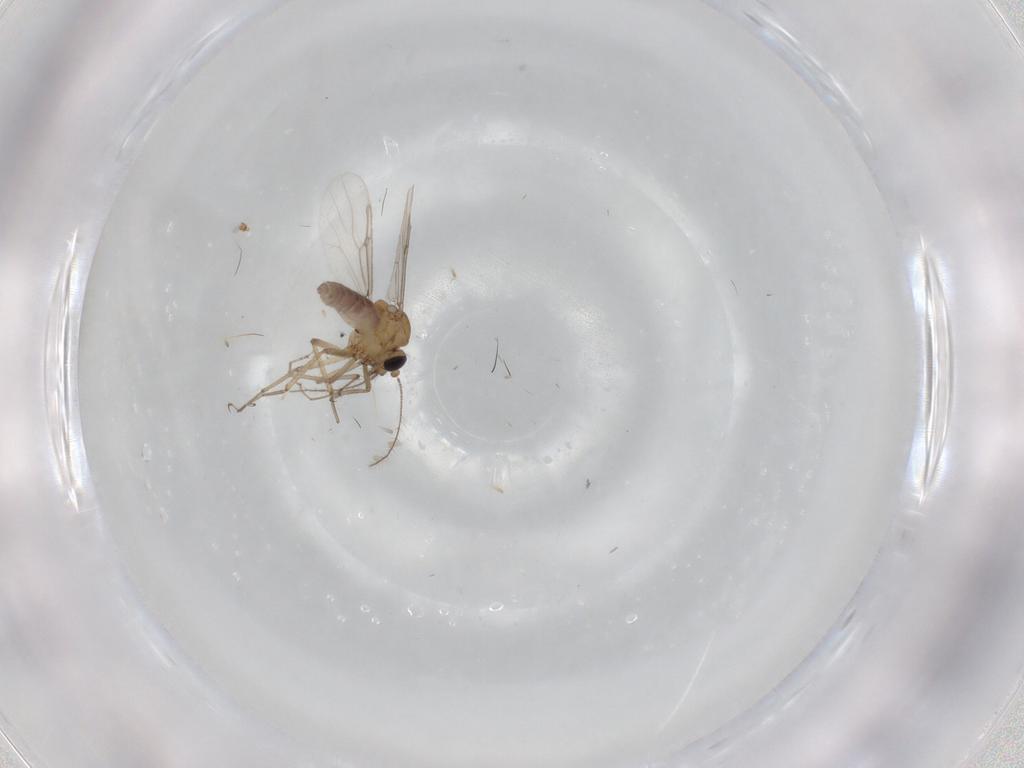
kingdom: Animalia
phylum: Arthropoda
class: Insecta
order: Diptera
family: Ceratopogonidae
